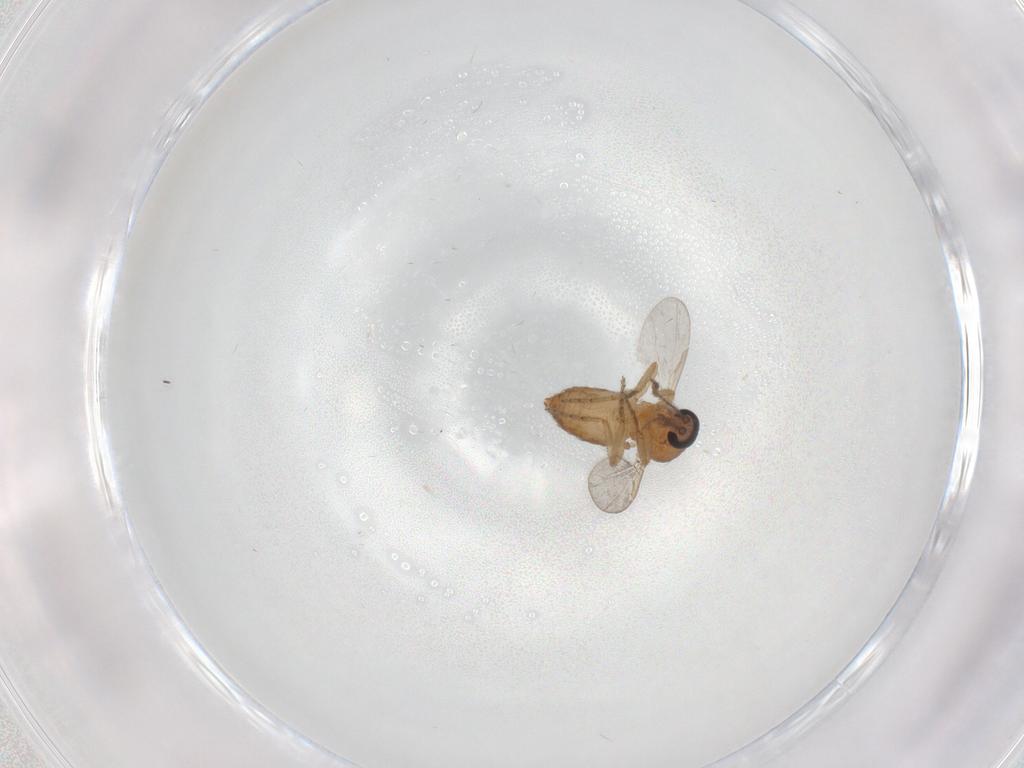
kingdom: Animalia
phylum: Arthropoda
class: Insecta
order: Diptera
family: Ceratopogonidae
